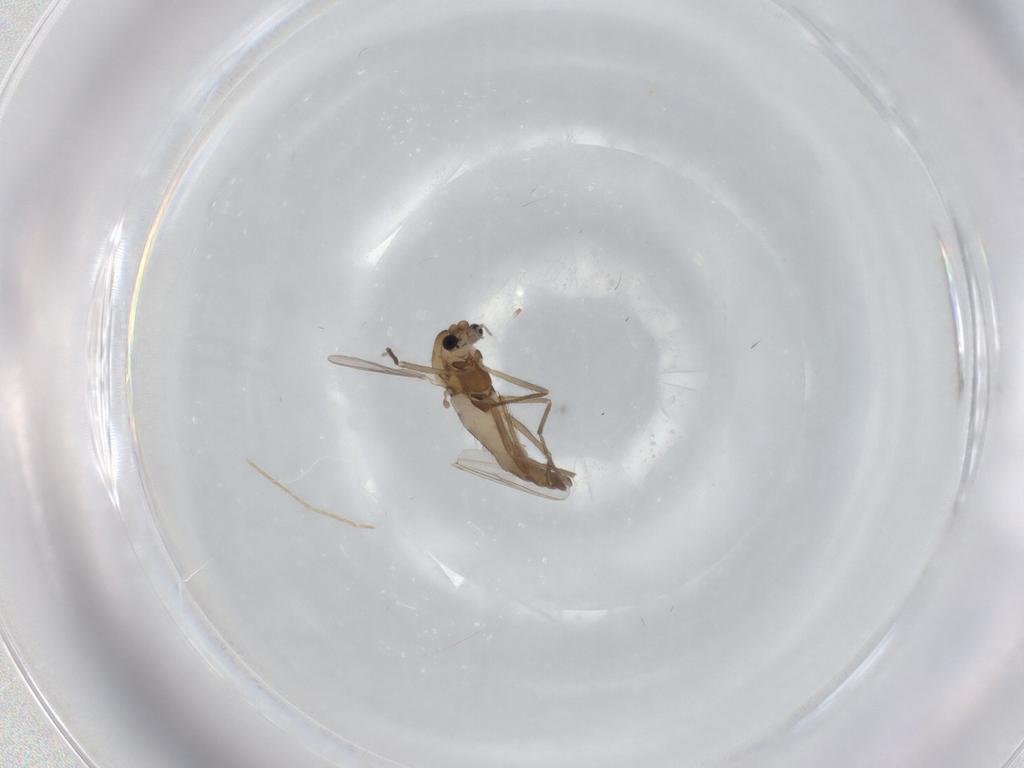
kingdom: Animalia
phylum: Arthropoda
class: Insecta
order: Diptera
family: Chironomidae
